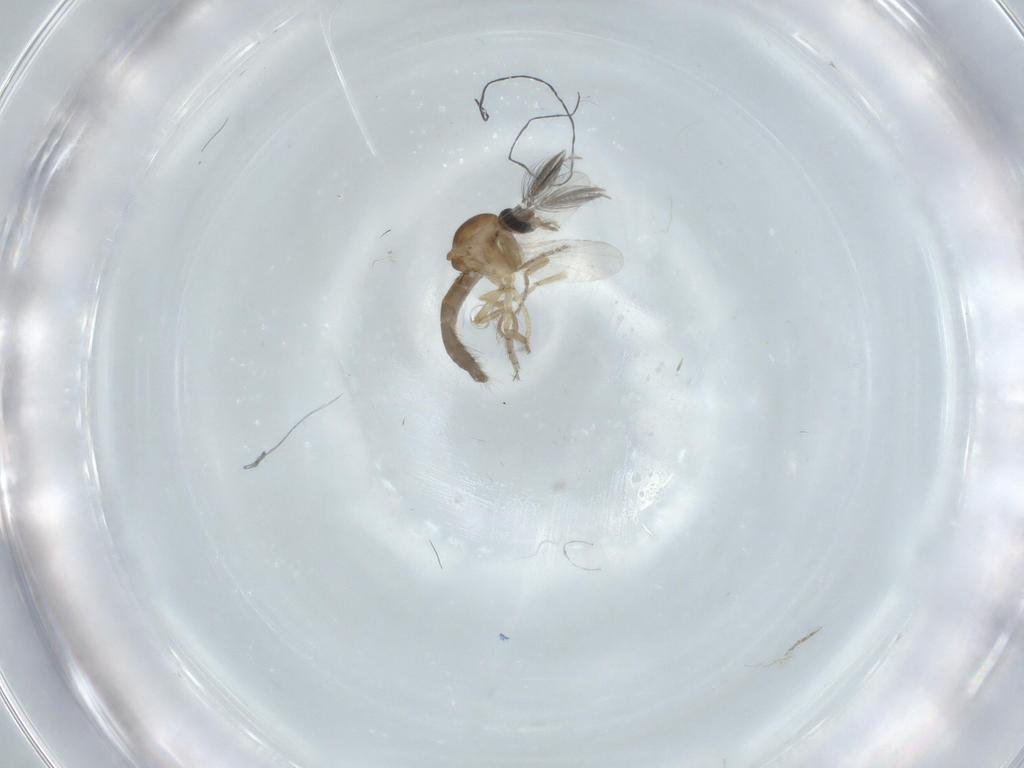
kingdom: Animalia
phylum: Arthropoda
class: Insecta
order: Diptera
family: Ceratopogonidae
